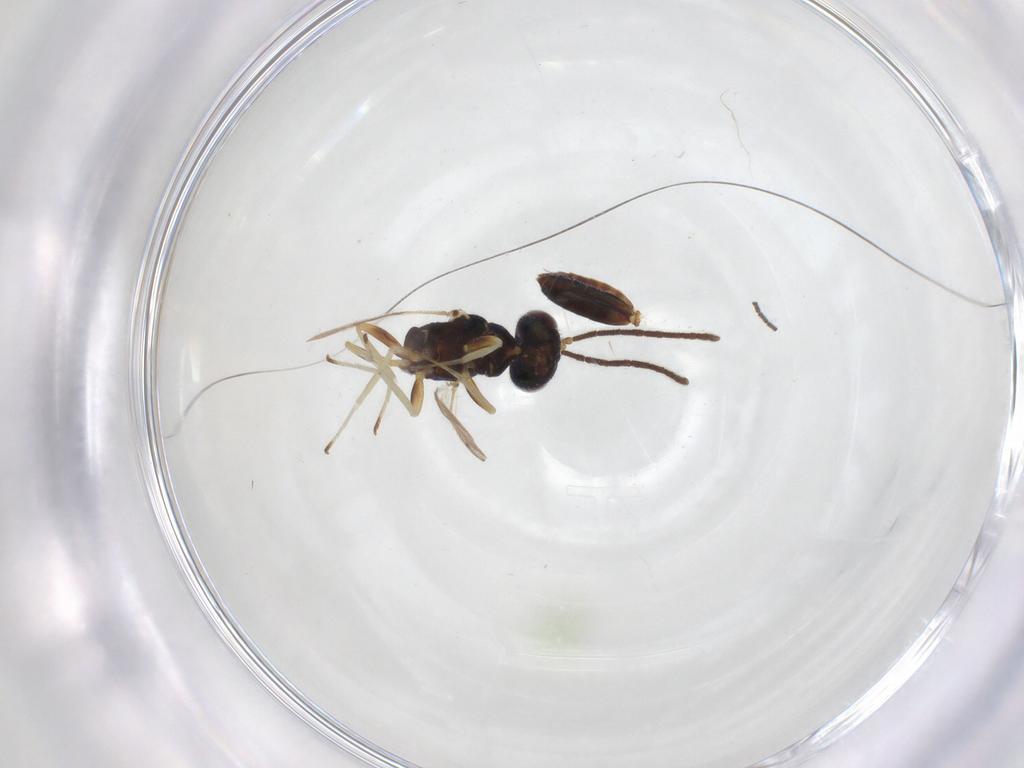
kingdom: Animalia
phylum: Arthropoda
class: Insecta
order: Hymenoptera
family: Eupelmidae
